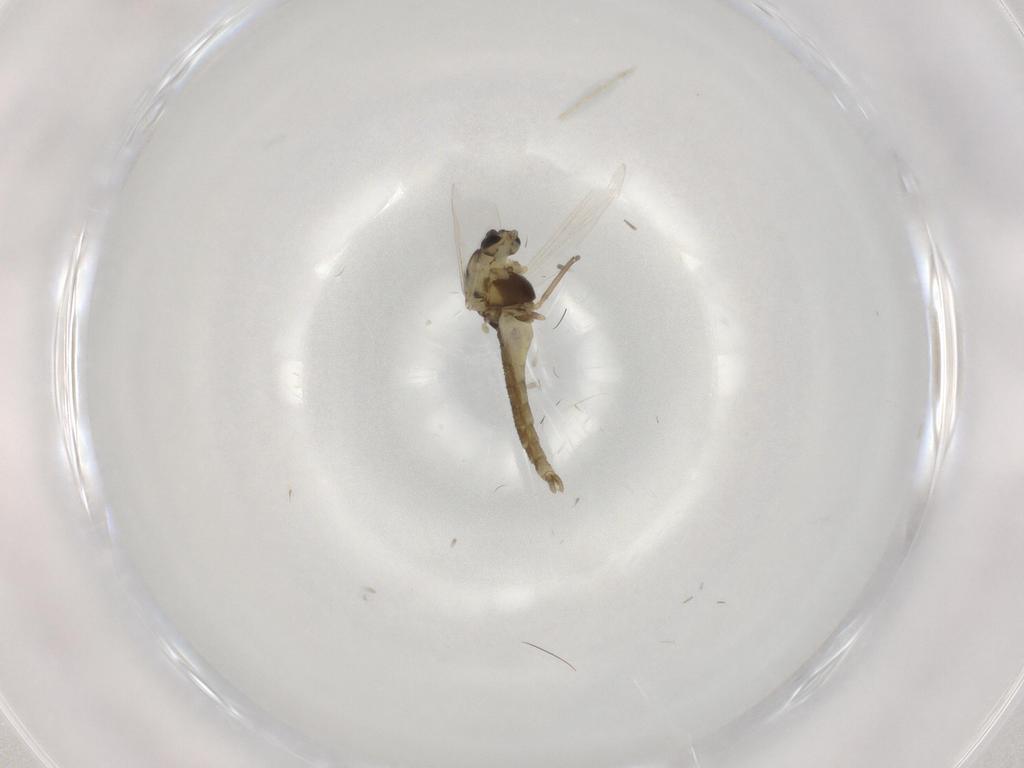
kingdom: Animalia
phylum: Arthropoda
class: Insecta
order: Diptera
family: Chironomidae
